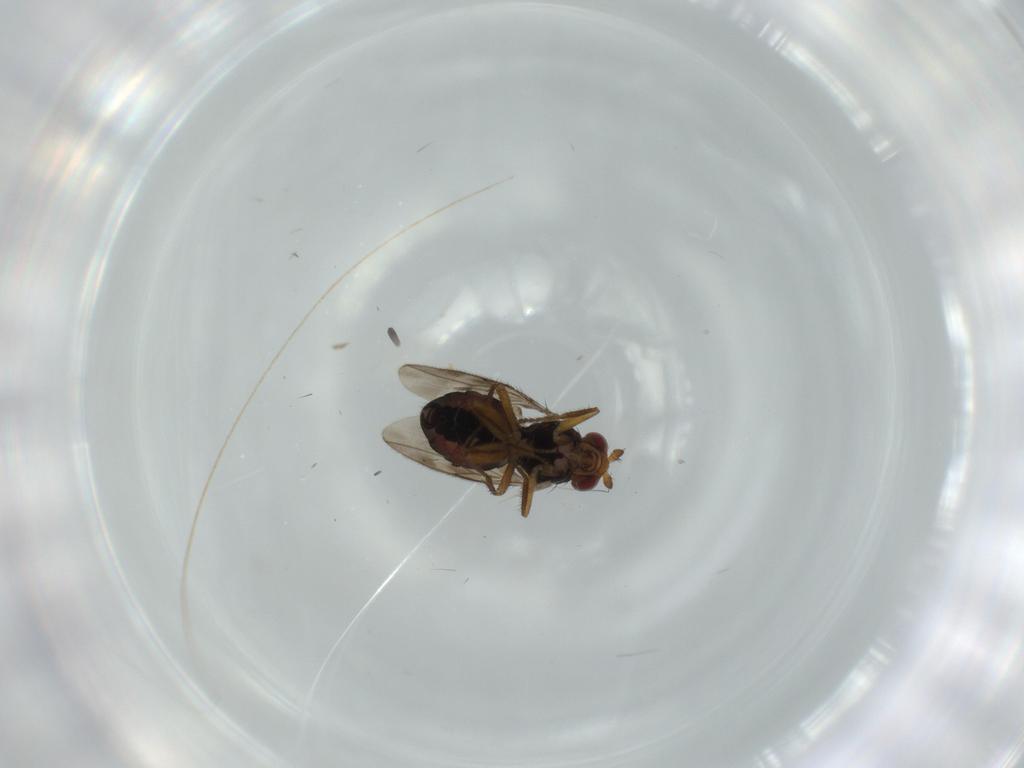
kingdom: Animalia
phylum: Arthropoda
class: Insecta
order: Diptera
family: Sphaeroceridae
